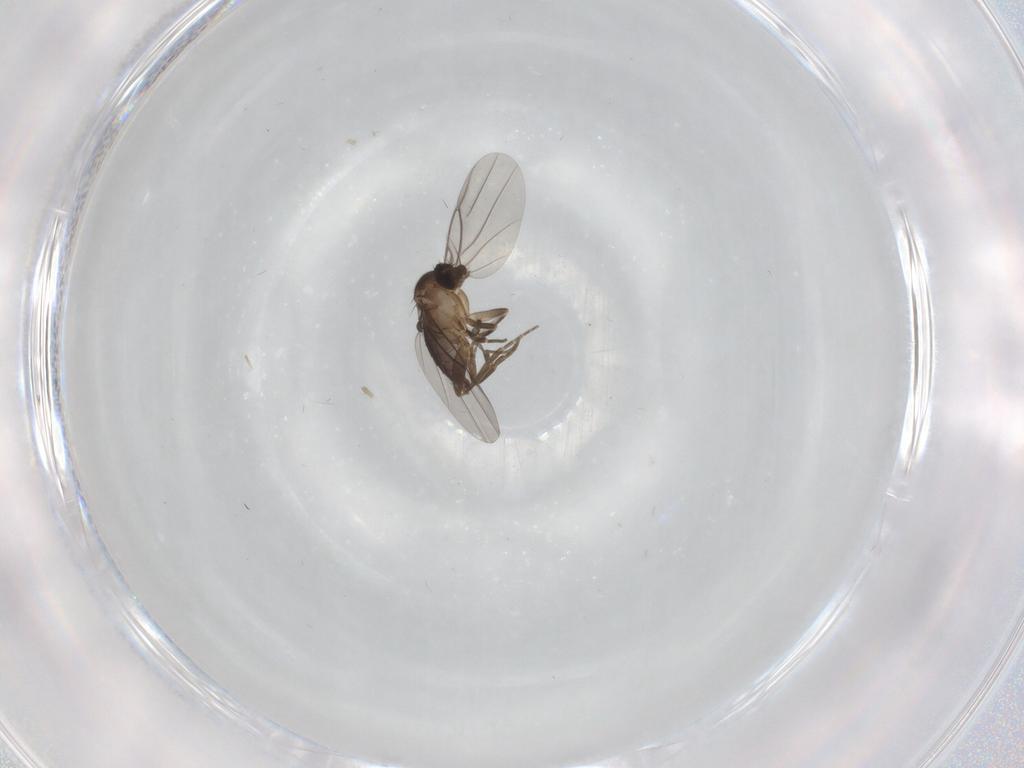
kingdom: Animalia
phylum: Arthropoda
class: Insecta
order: Diptera
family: Phoridae
